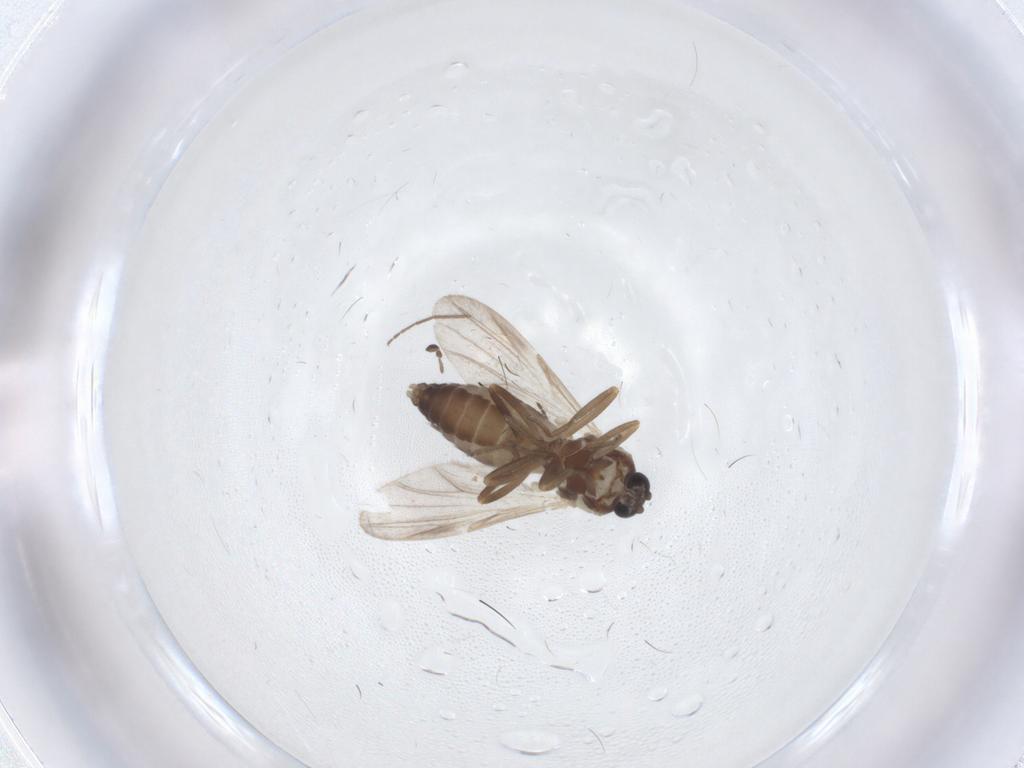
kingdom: Animalia
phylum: Arthropoda
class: Insecta
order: Diptera
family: Ceratopogonidae
